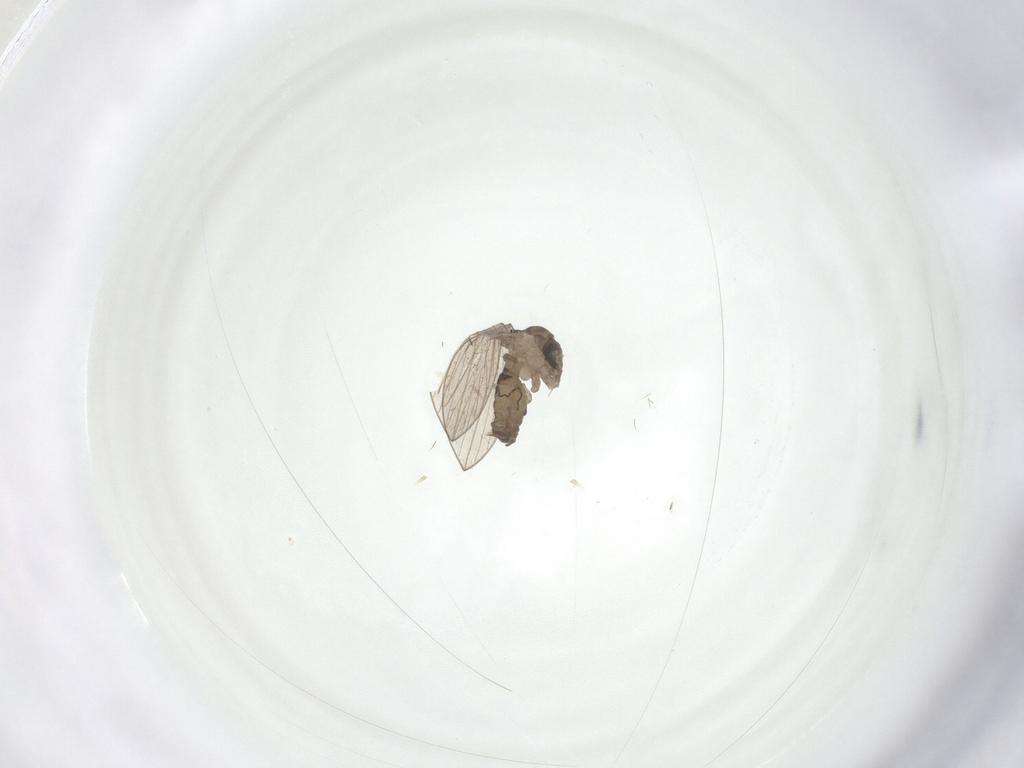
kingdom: Animalia
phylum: Arthropoda
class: Insecta
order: Diptera
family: Psychodidae
